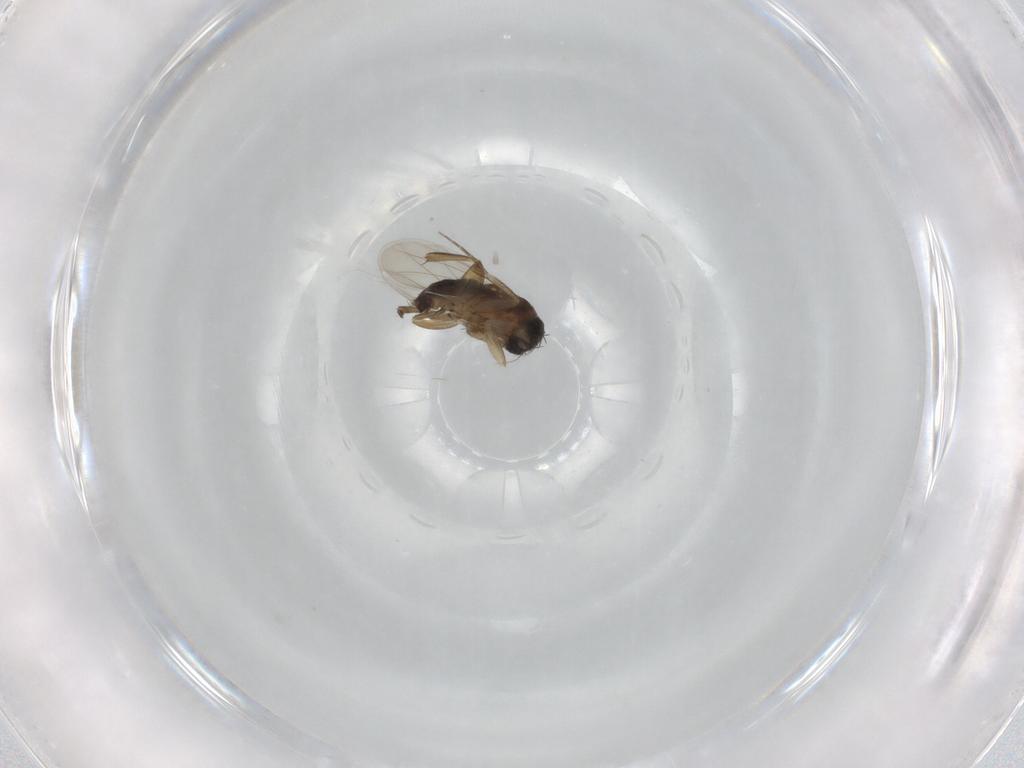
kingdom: Animalia
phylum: Arthropoda
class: Insecta
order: Diptera
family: Phoridae
